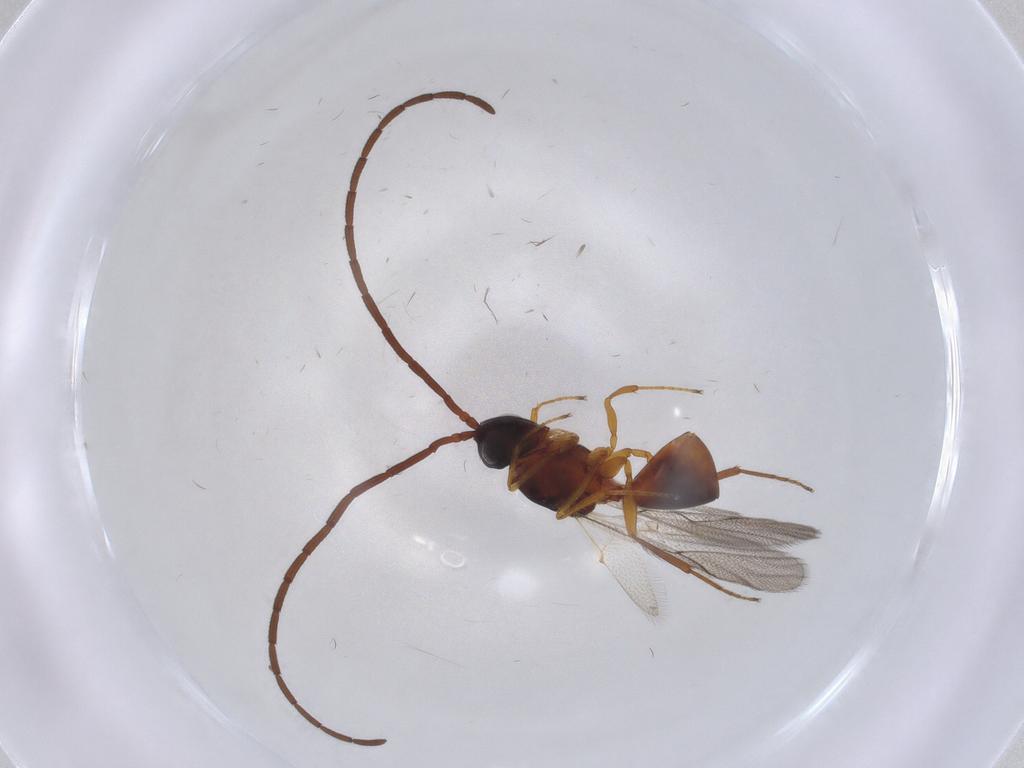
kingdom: Animalia
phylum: Arthropoda
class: Insecta
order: Hymenoptera
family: Figitidae
